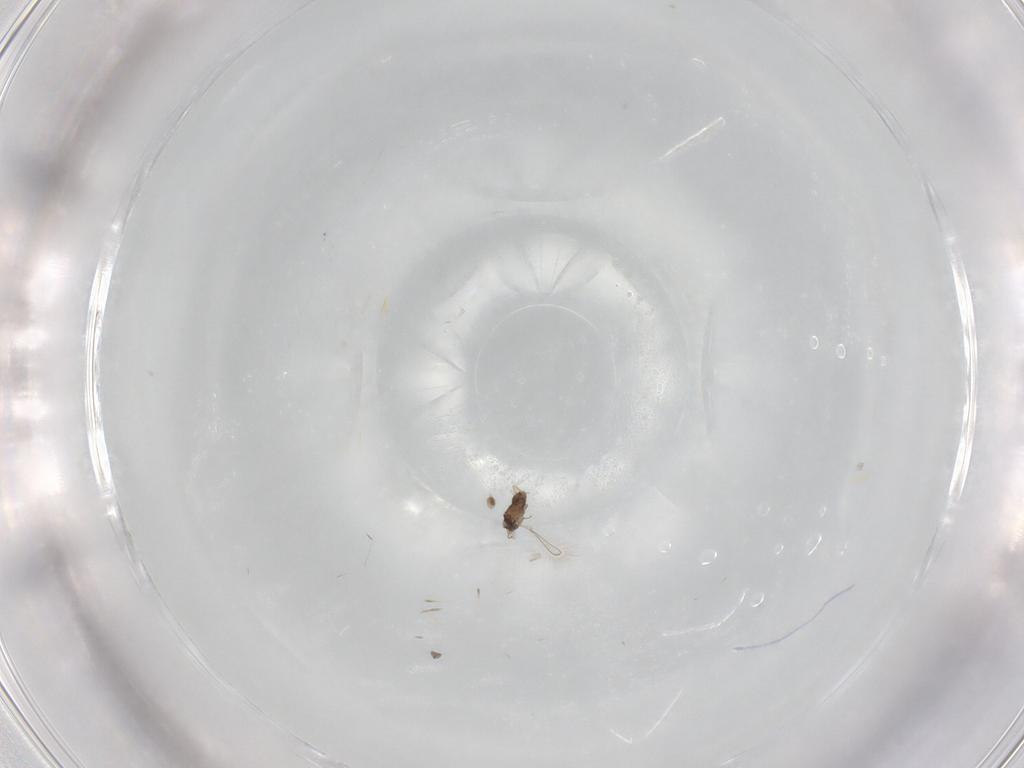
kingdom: Animalia
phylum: Arthropoda
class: Insecta
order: Hymenoptera
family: Mymaridae
